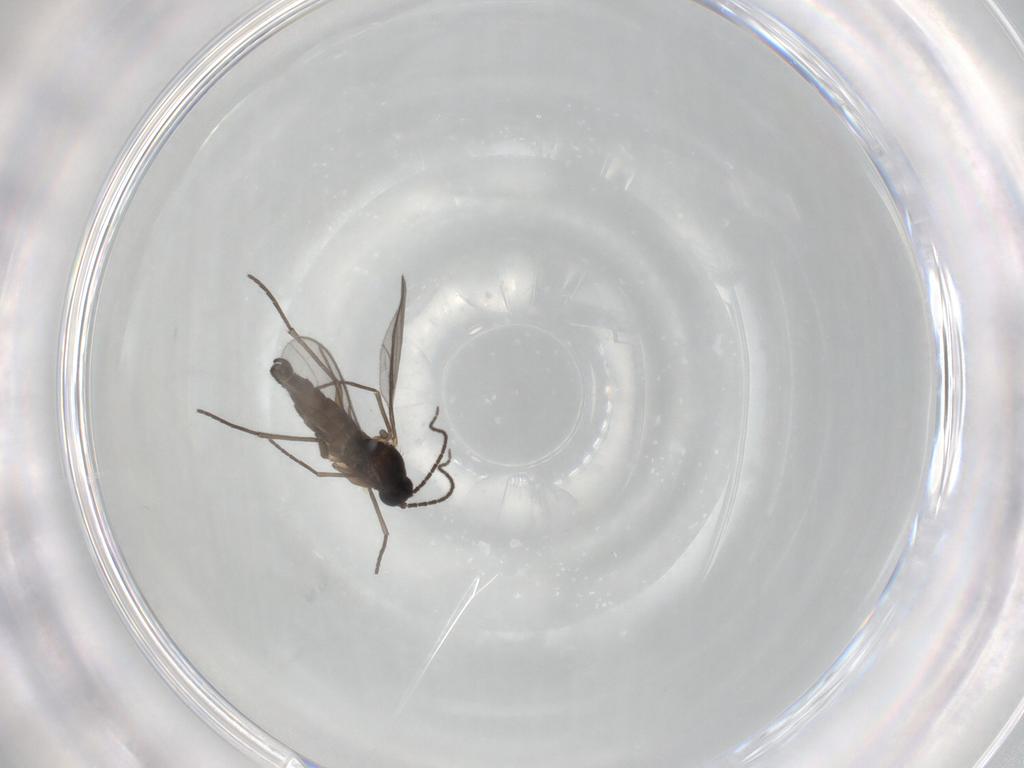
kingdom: Animalia
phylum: Arthropoda
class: Insecta
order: Diptera
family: Sciaridae
